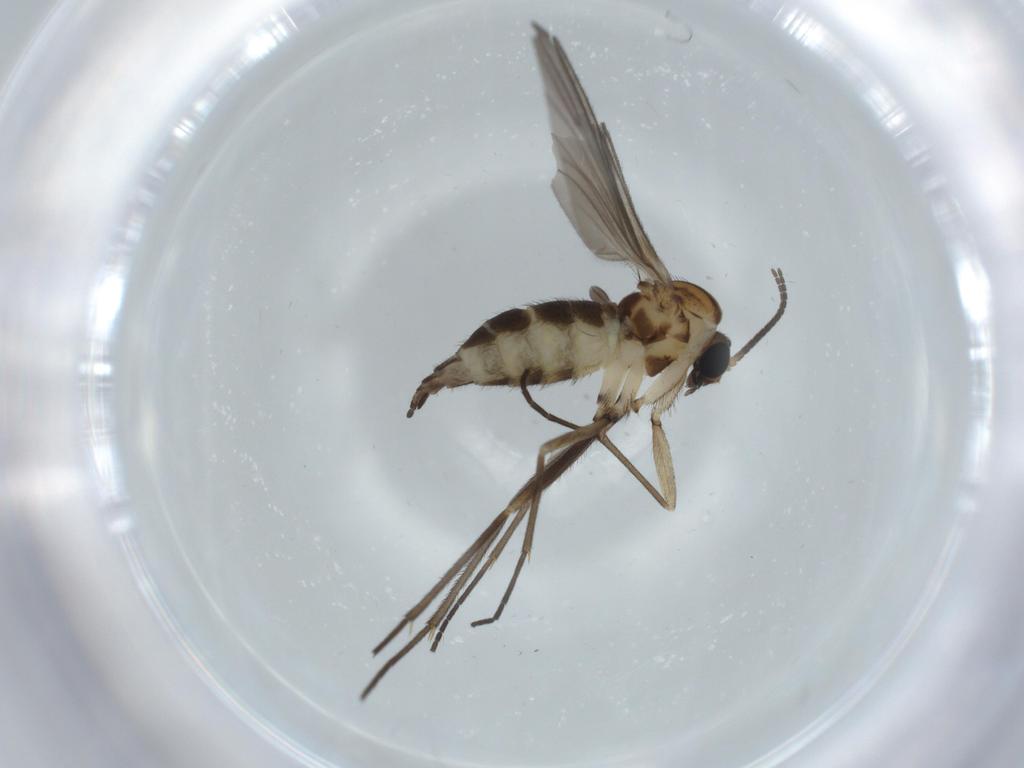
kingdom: Animalia
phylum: Arthropoda
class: Insecta
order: Diptera
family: Sciaridae
